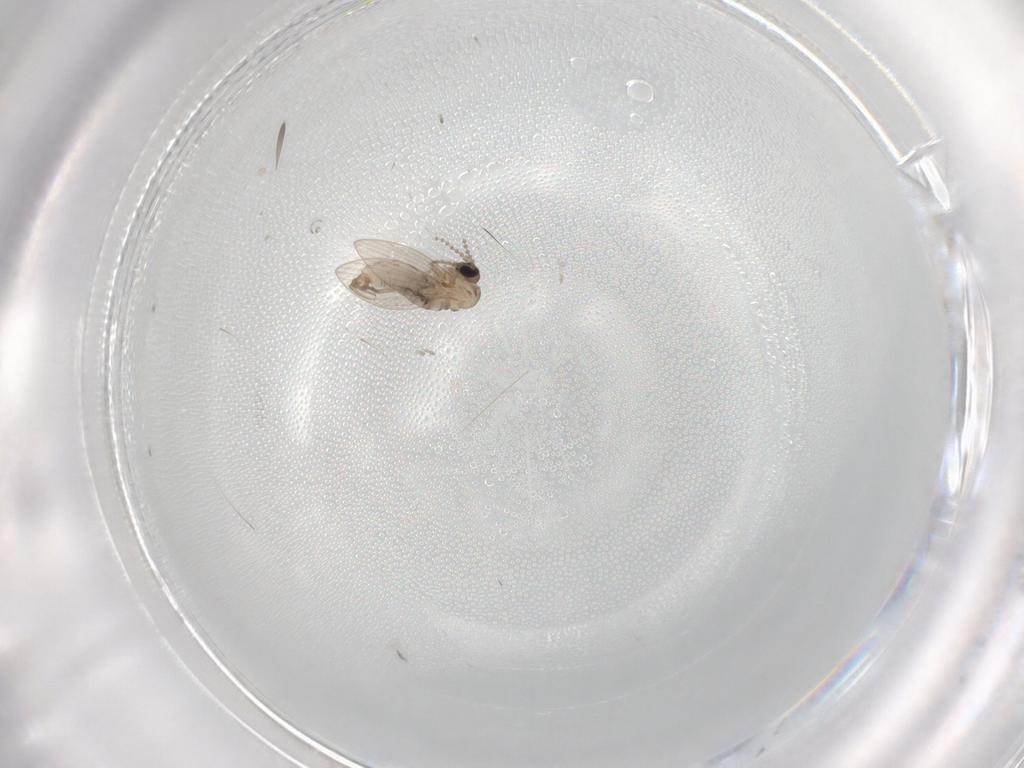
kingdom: Animalia
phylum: Arthropoda
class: Insecta
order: Diptera
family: Psychodidae
